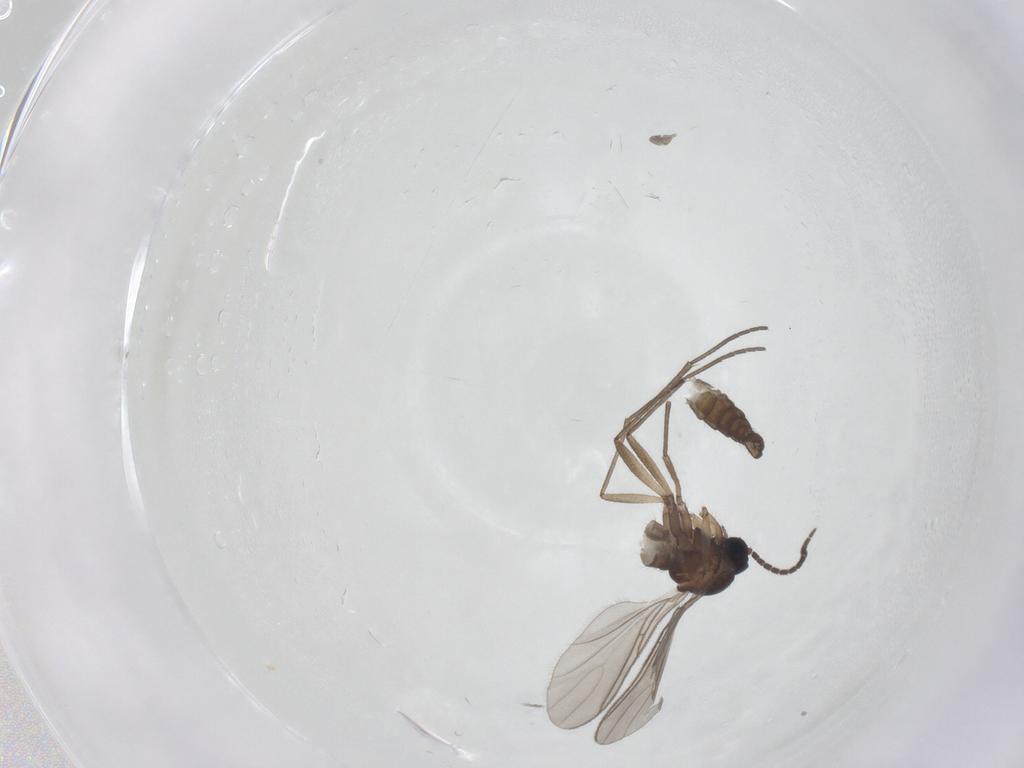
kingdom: Animalia
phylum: Arthropoda
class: Insecta
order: Diptera
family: Sciaridae
